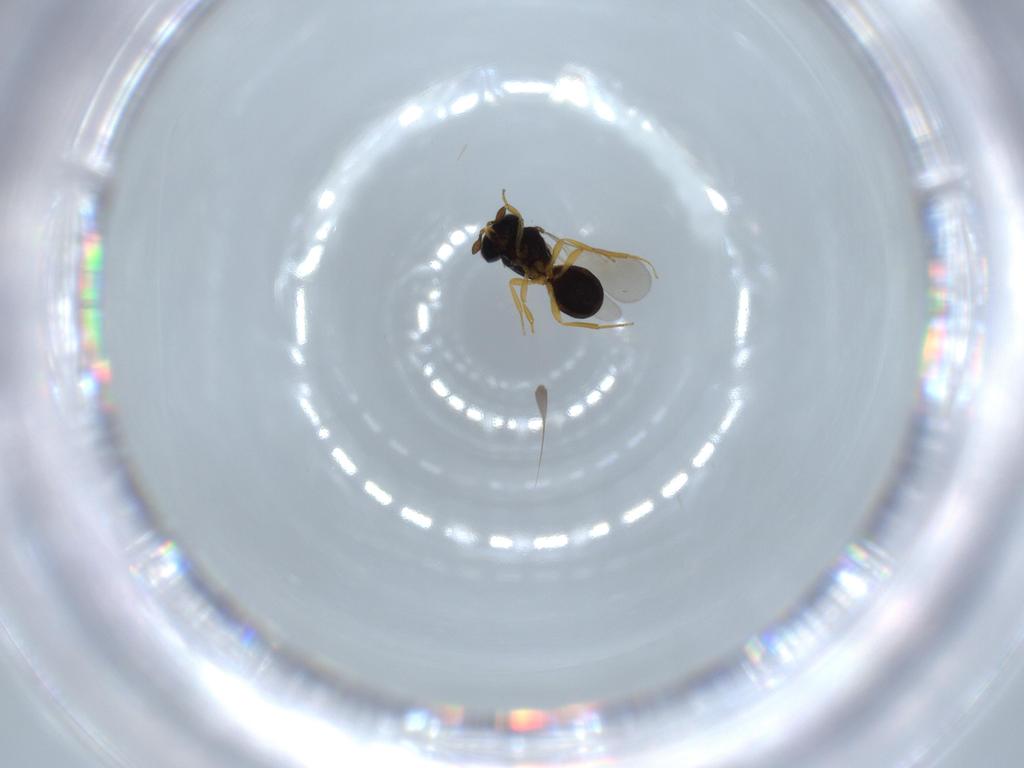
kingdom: Animalia
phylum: Arthropoda
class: Insecta
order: Hymenoptera
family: Scelionidae
